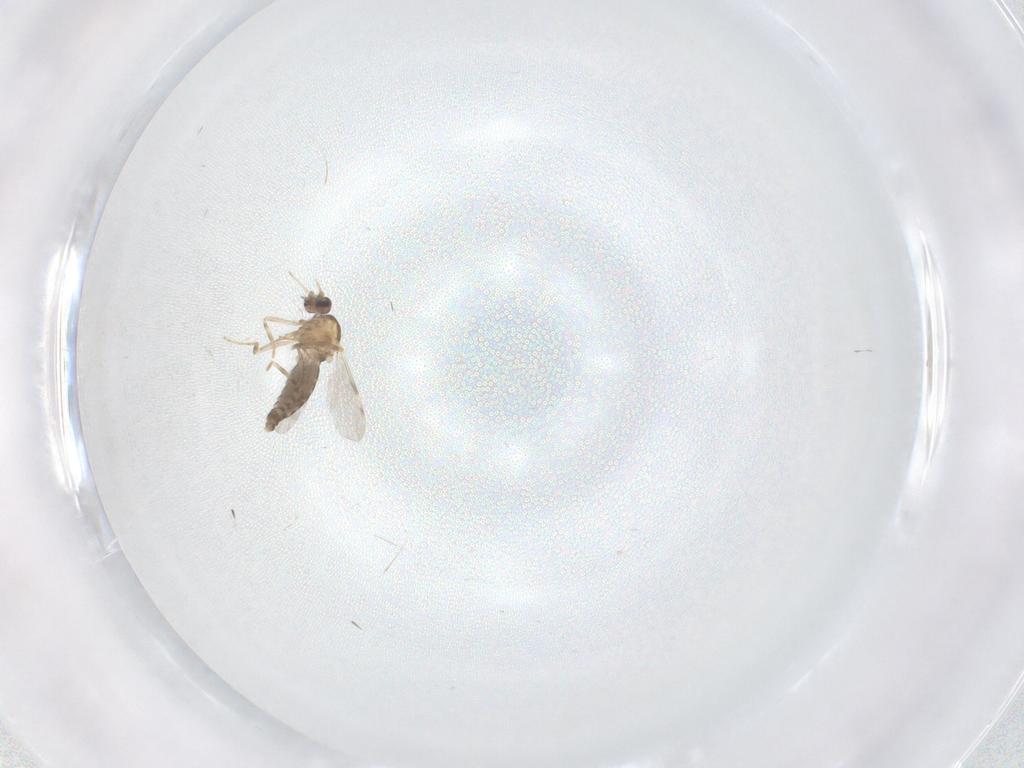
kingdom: Animalia
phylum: Arthropoda
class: Insecta
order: Diptera
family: Ceratopogonidae
